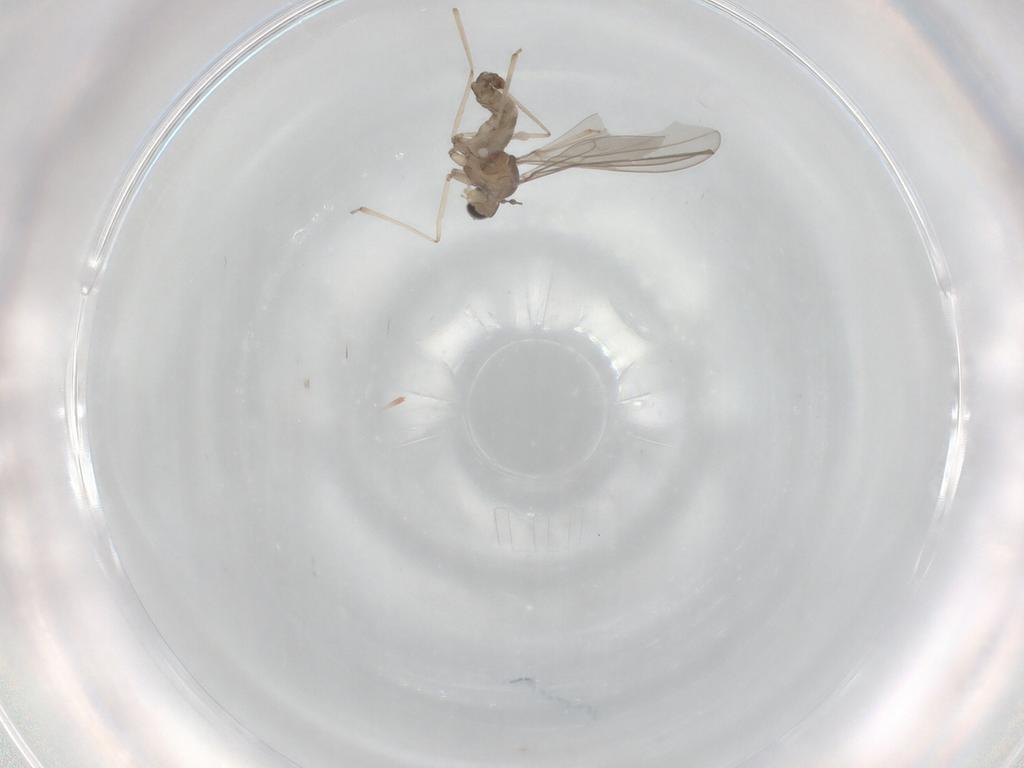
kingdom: Animalia
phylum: Arthropoda
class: Insecta
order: Diptera
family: Cecidomyiidae
